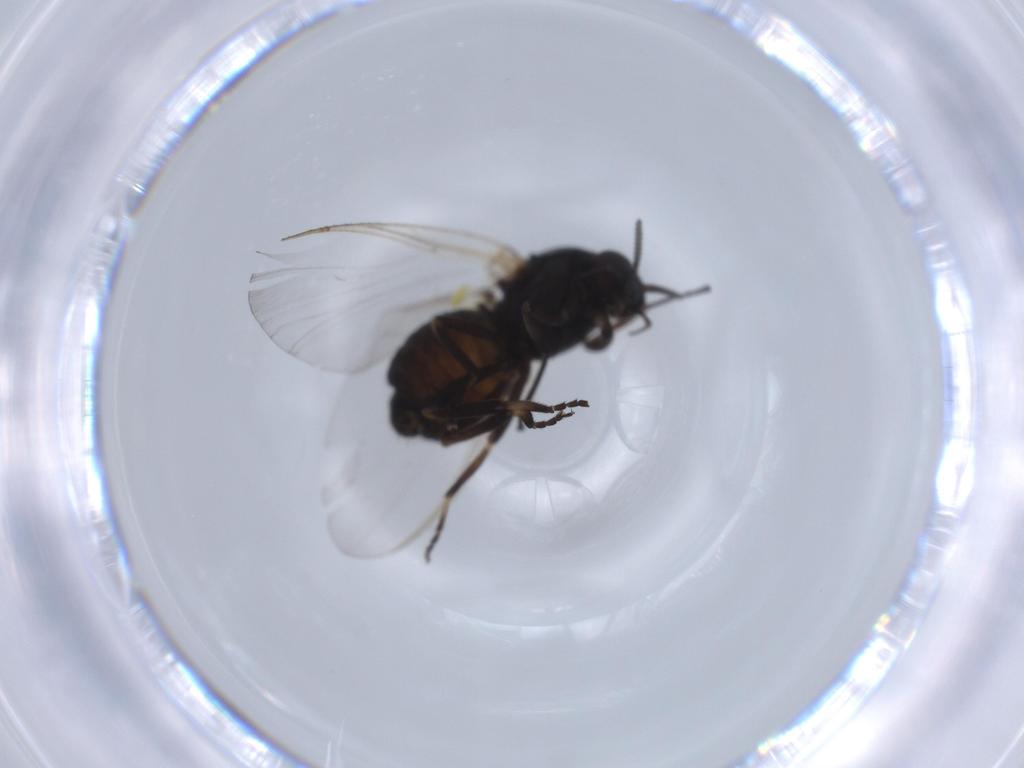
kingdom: Animalia
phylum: Arthropoda
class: Insecta
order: Diptera
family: Simuliidae
